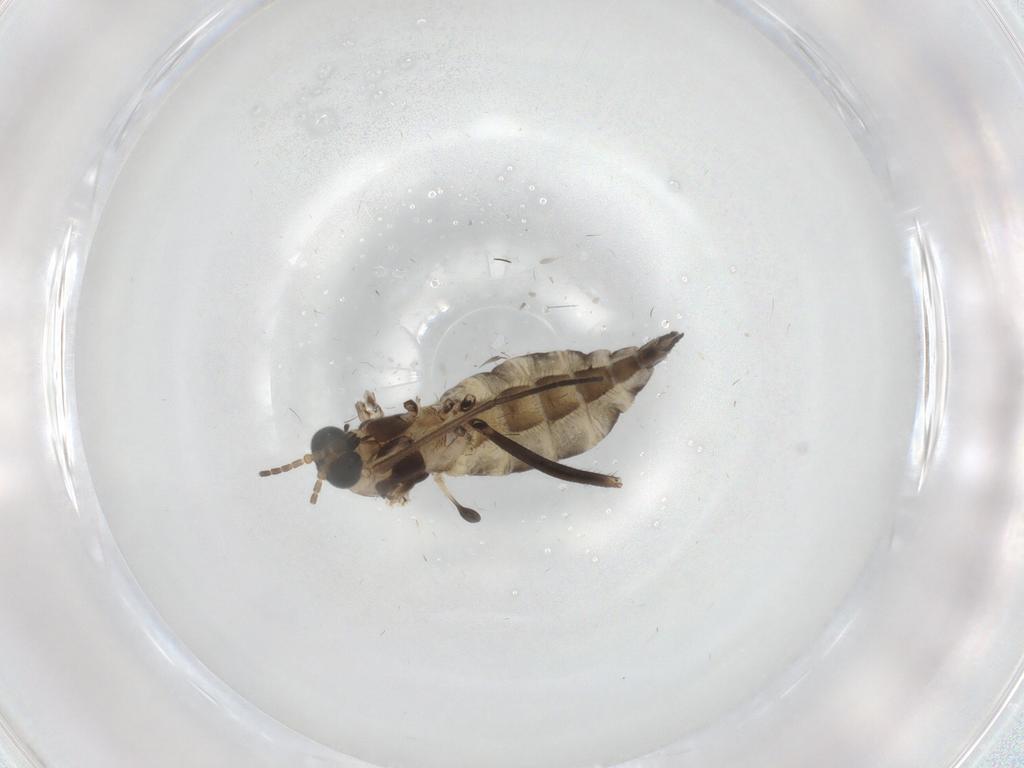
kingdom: Animalia
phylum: Arthropoda
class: Insecta
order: Diptera
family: Sciaridae
